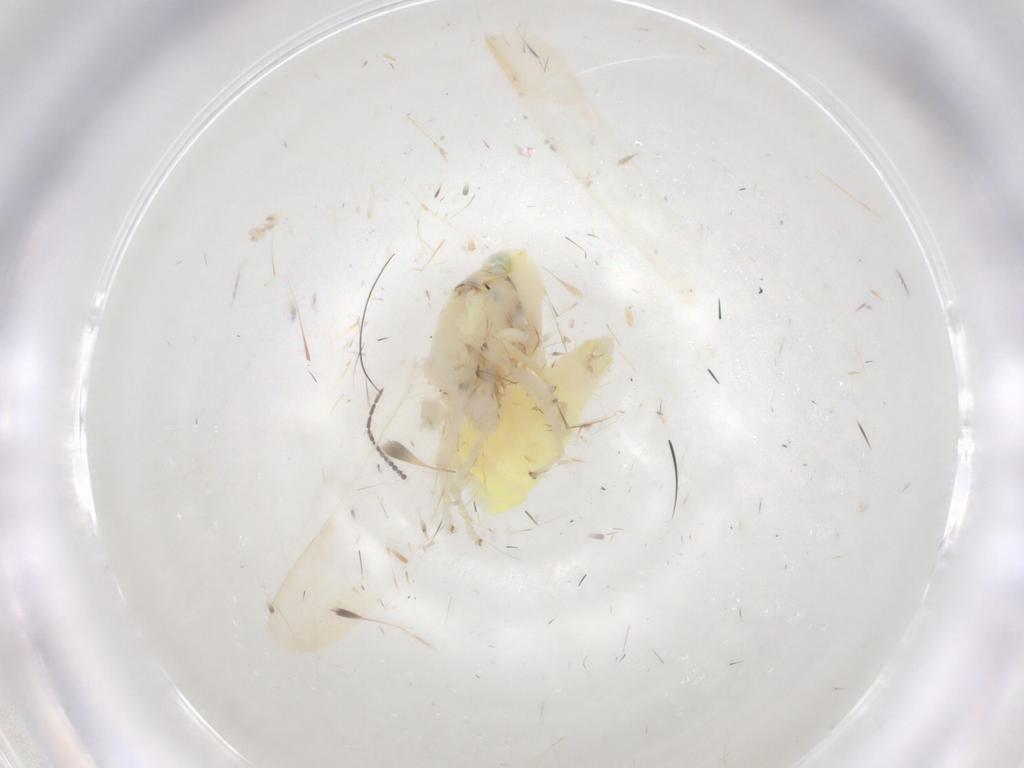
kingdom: Animalia
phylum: Arthropoda
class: Insecta
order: Hemiptera
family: Cicadellidae
